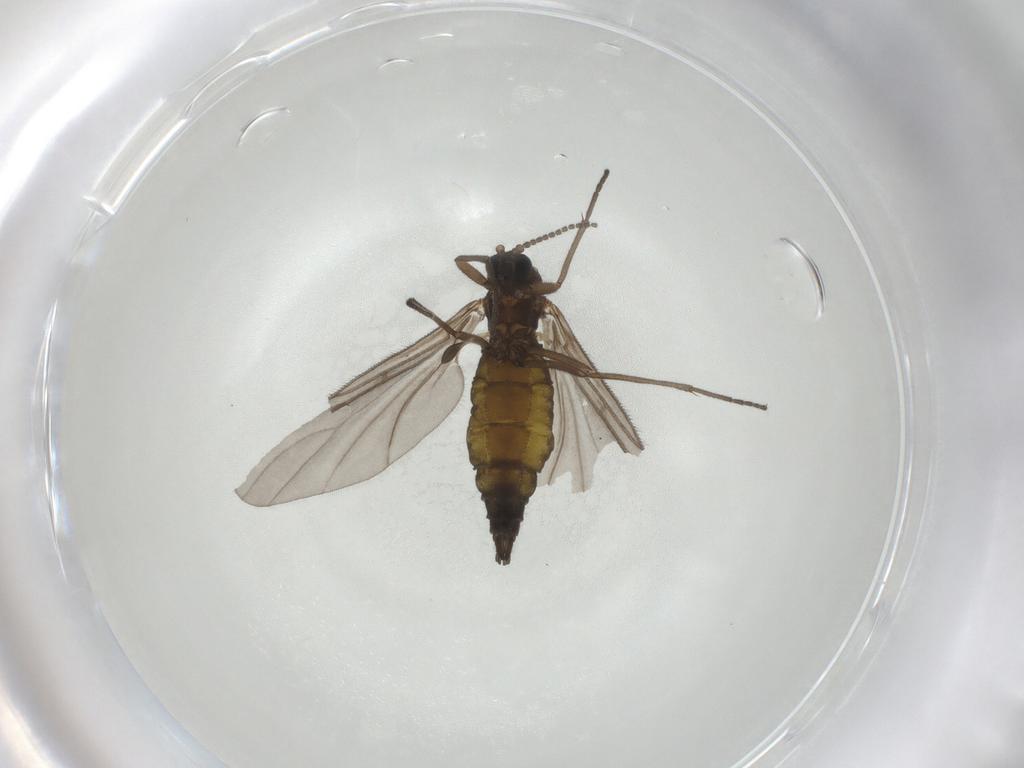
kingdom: Animalia
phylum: Arthropoda
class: Insecta
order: Diptera
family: Sciaridae
